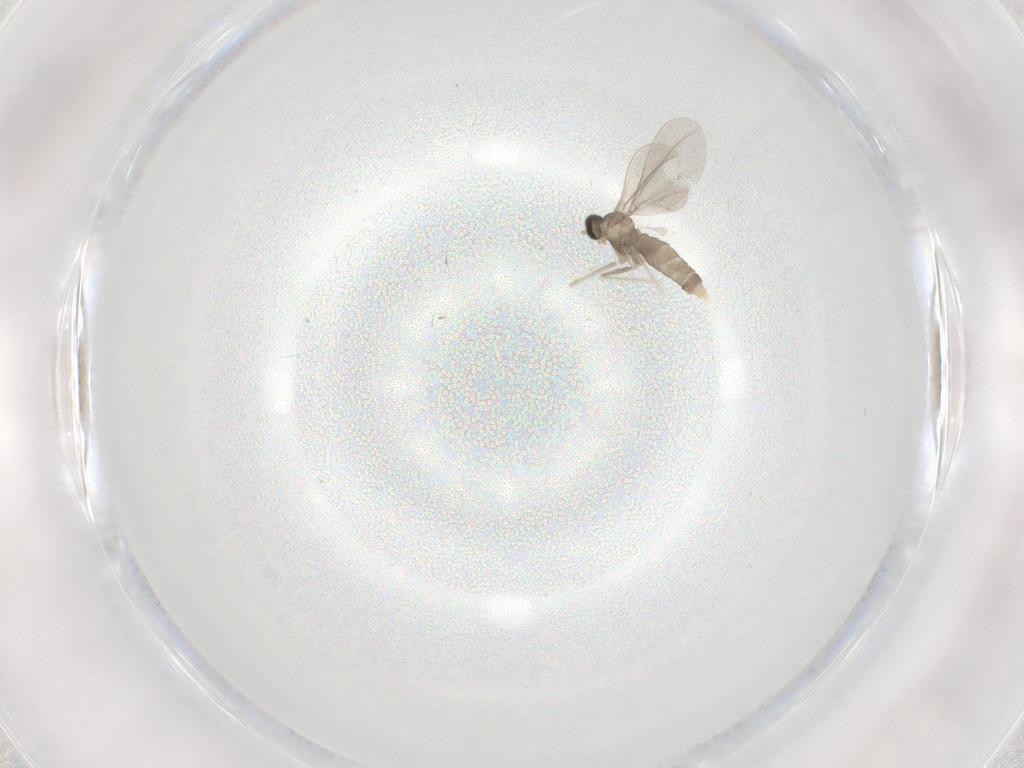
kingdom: Animalia
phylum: Arthropoda
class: Insecta
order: Diptera
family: Cecidomyiidae
